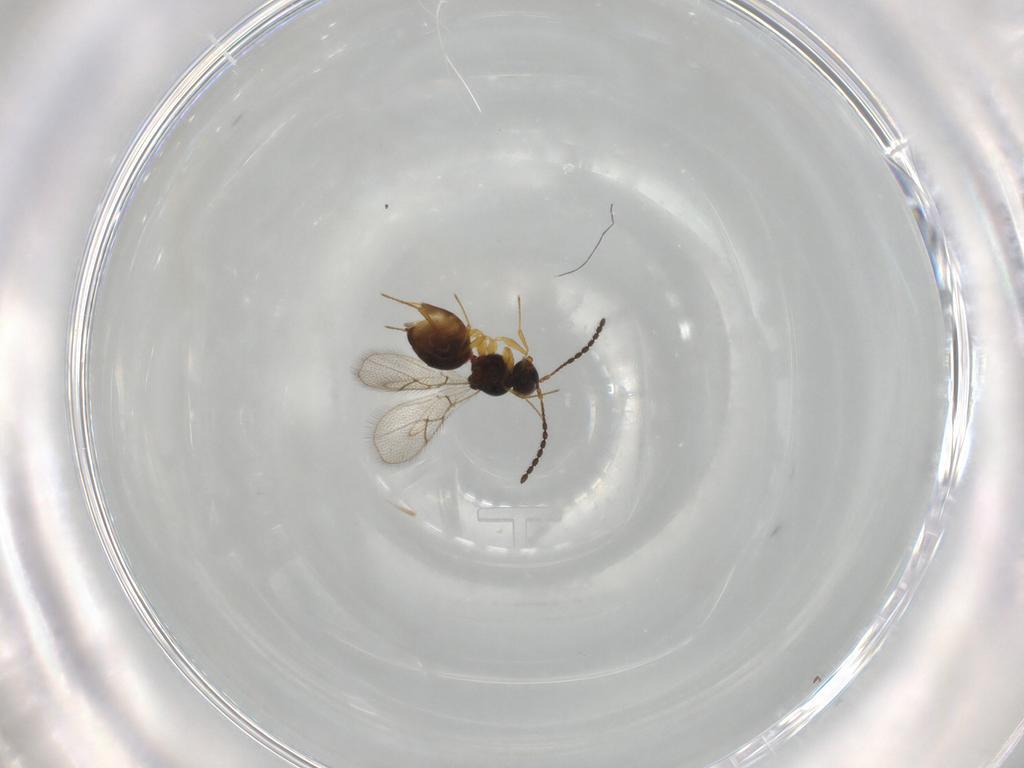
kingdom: Animalia
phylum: Arthropoda
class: Insecta
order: Hymenoptera
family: Figitidae
